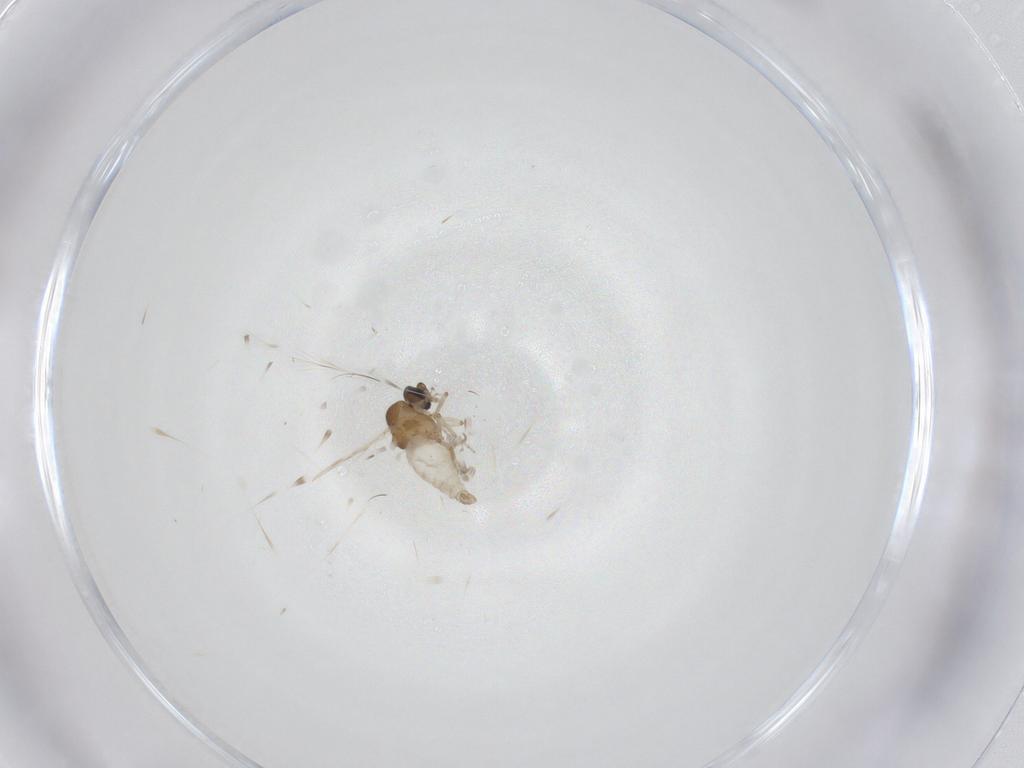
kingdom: Animalia
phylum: Arthropoda
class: Insecta
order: Diptera
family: Ceratopogonidae
